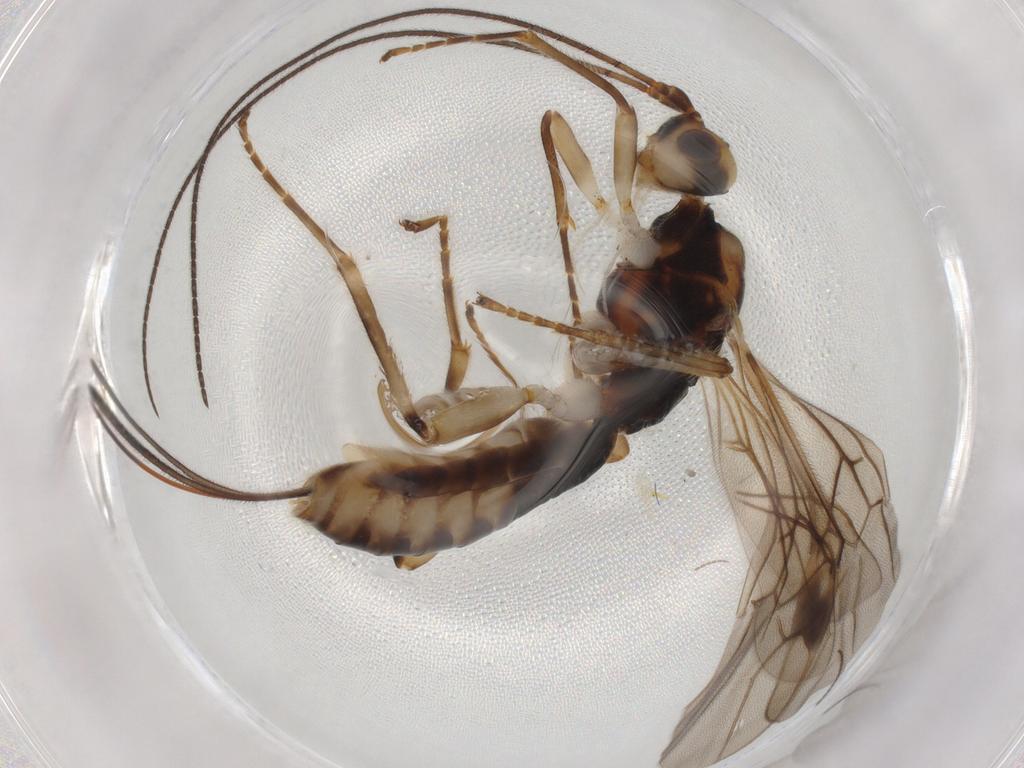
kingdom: Animalia
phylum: Arthropoda
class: Insecta
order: Hymenoptera
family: Braconidae
